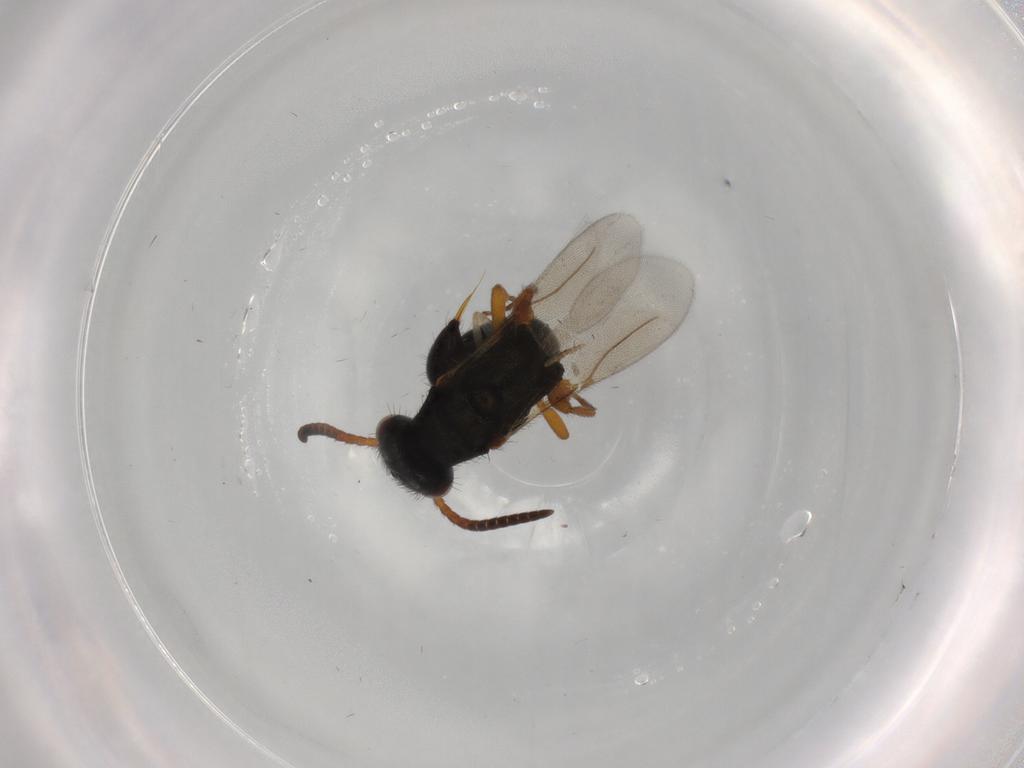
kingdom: Animalia
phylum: Arthropoda
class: Insecta
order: Hymenoptera
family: Bethylidae
